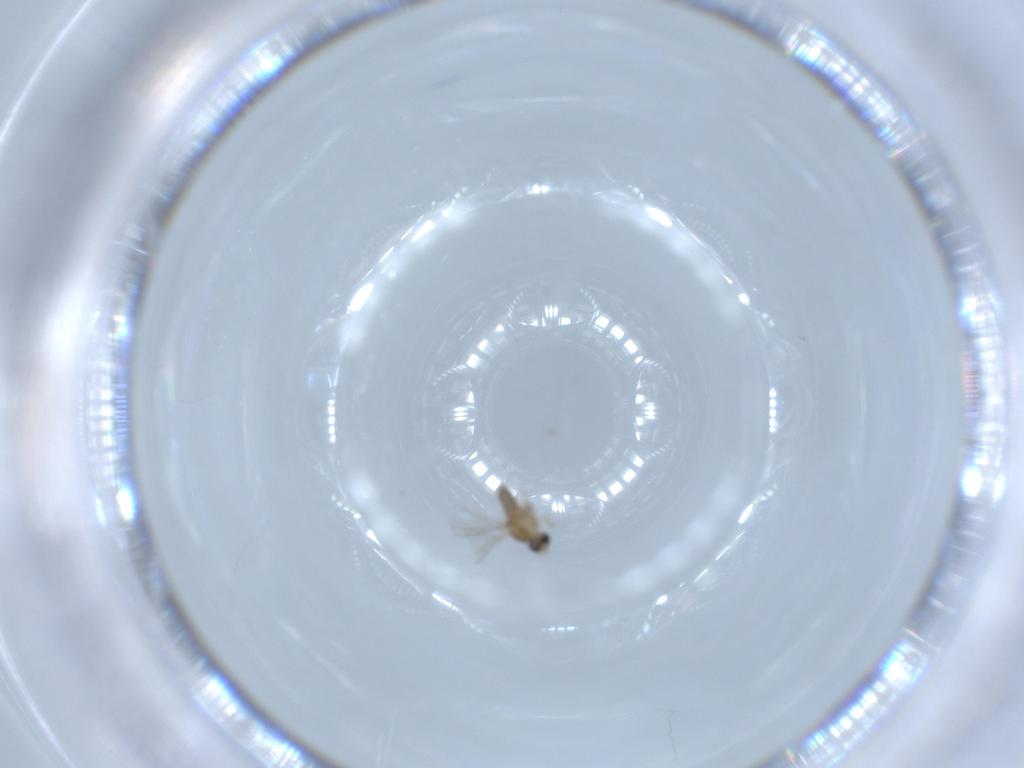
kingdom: Animalia
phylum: Arthropoda
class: Insecta
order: Diptera
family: Cecidomyiidae
